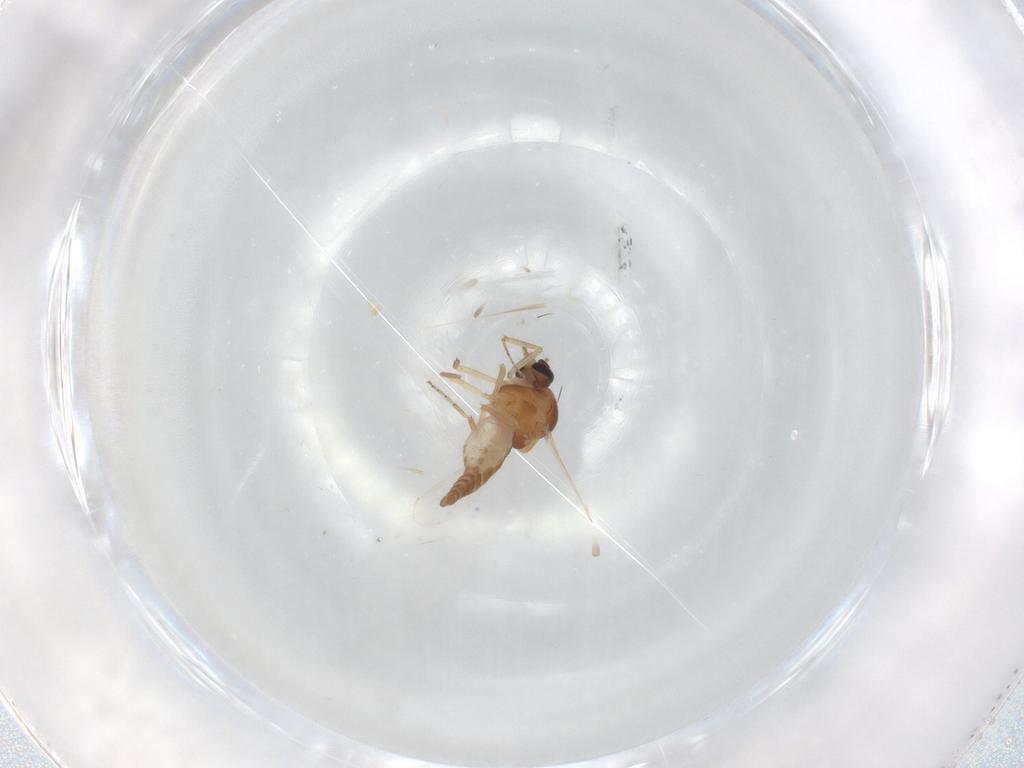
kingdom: Animalia
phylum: Arthropoda
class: Insecta
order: Diptera
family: Ceratopogonidae
